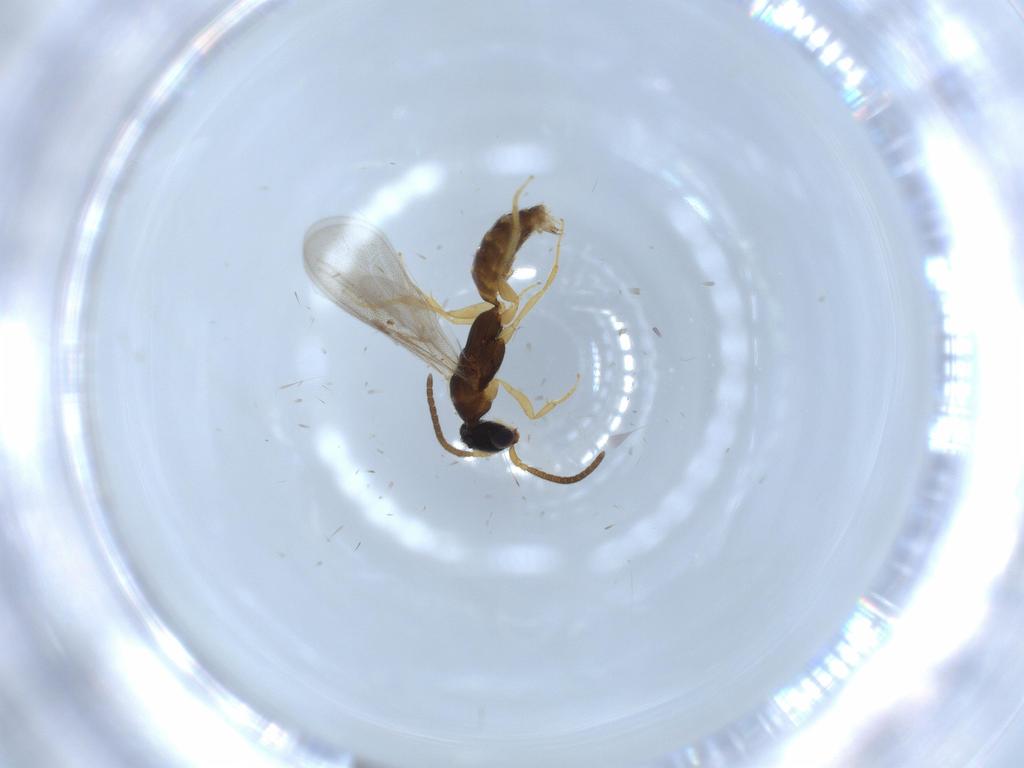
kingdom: Animalia
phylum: Arthropoda
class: Insecta
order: Hymenoptera
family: Bethylidae
